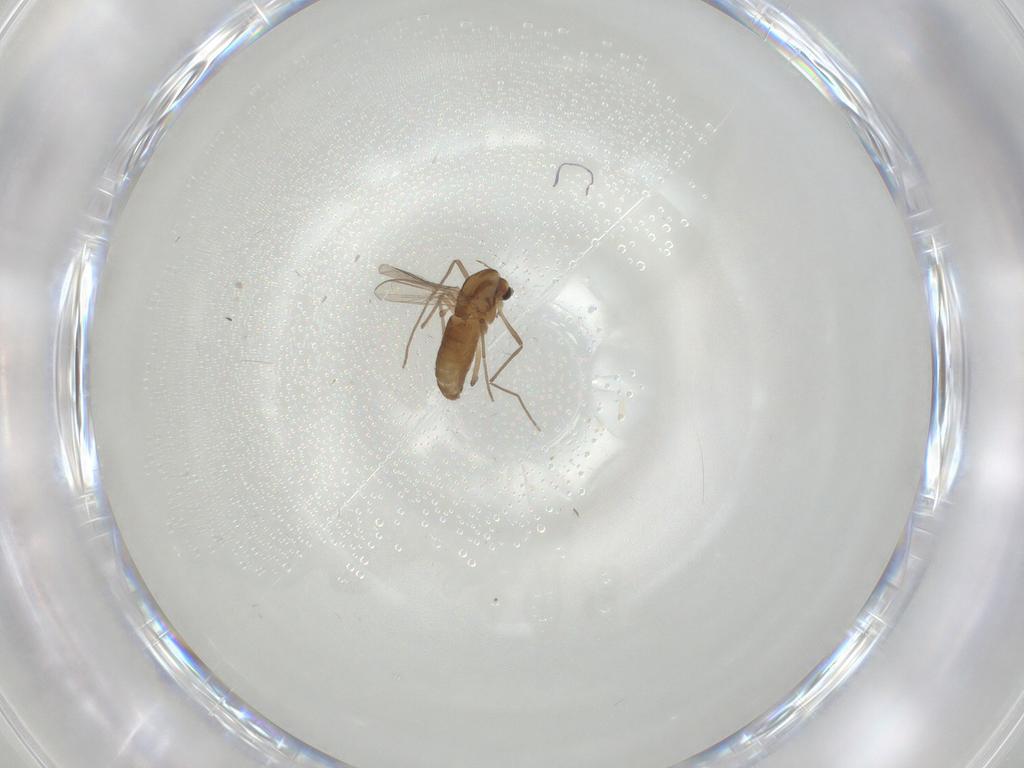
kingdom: Animalia
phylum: Arthropoda
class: Insecta
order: Diptera
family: Chironomidae
